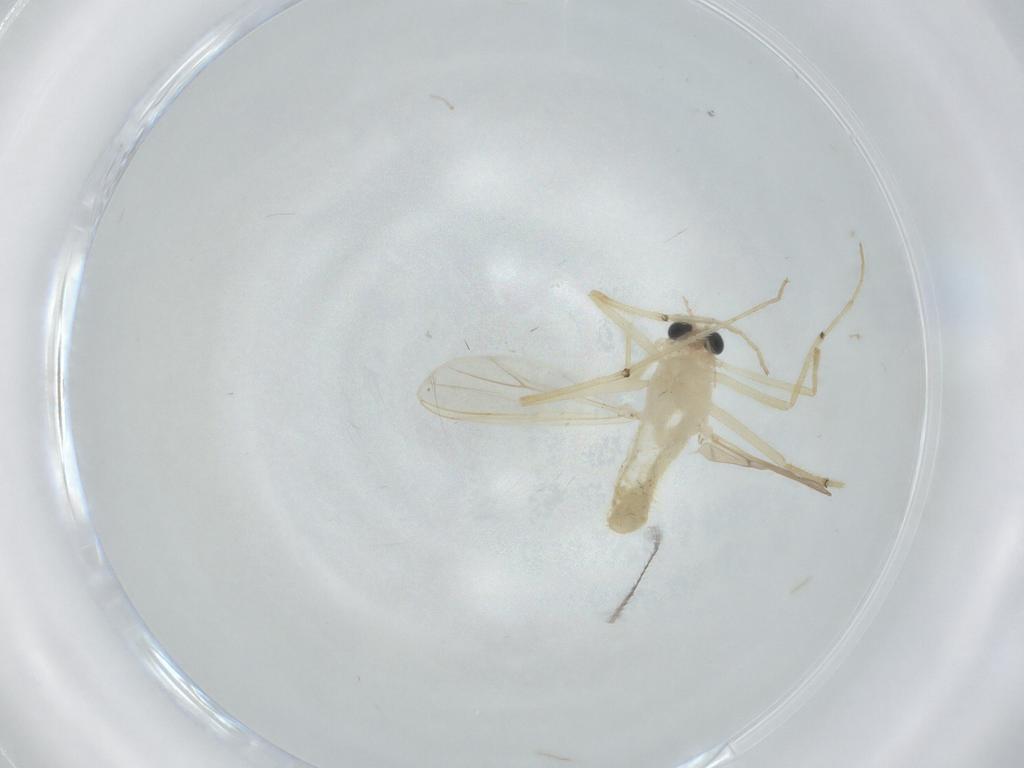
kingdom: Animalia
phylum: Arthropoda
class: Insecta
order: Diptera
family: Chironomidae
